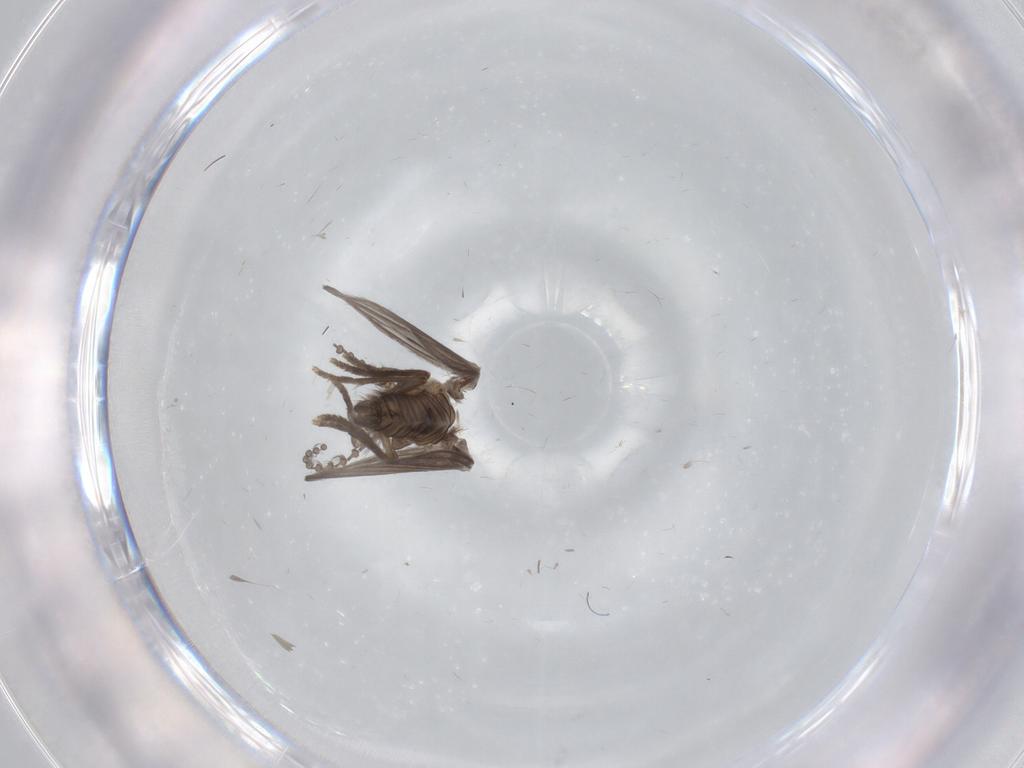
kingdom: Animalia
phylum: Arthropoda
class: Insecta
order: Diptera
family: Psychodidae
